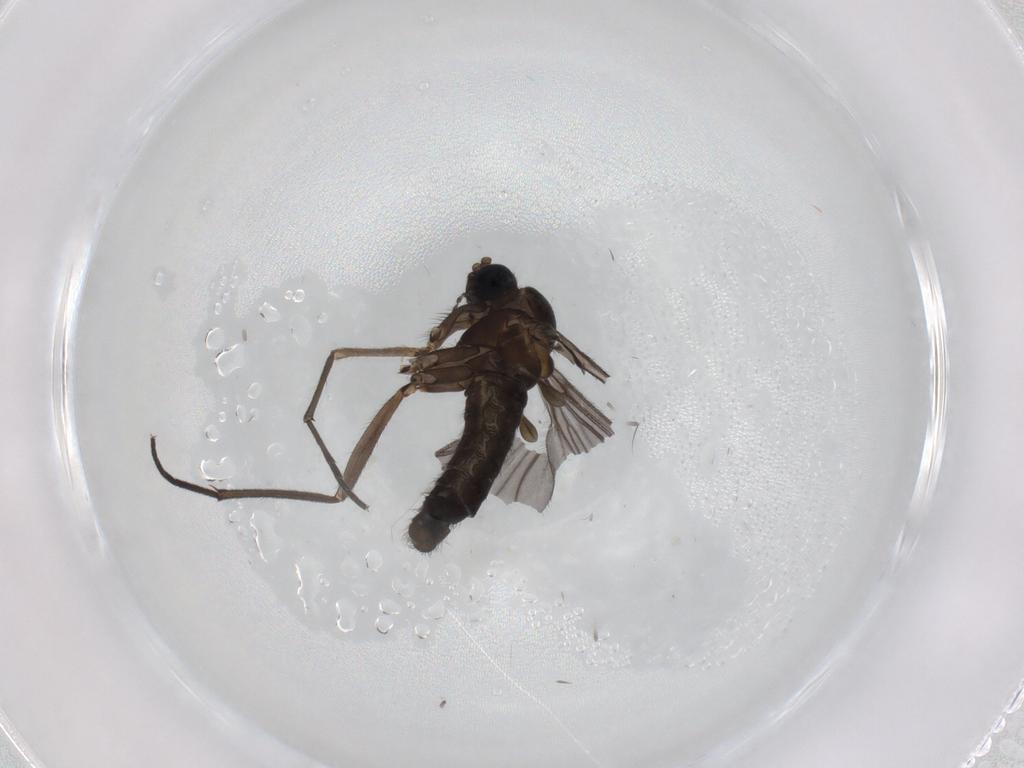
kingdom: Animalia
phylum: Arthropoda
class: Insecta
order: Diptera
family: Sciaridae
